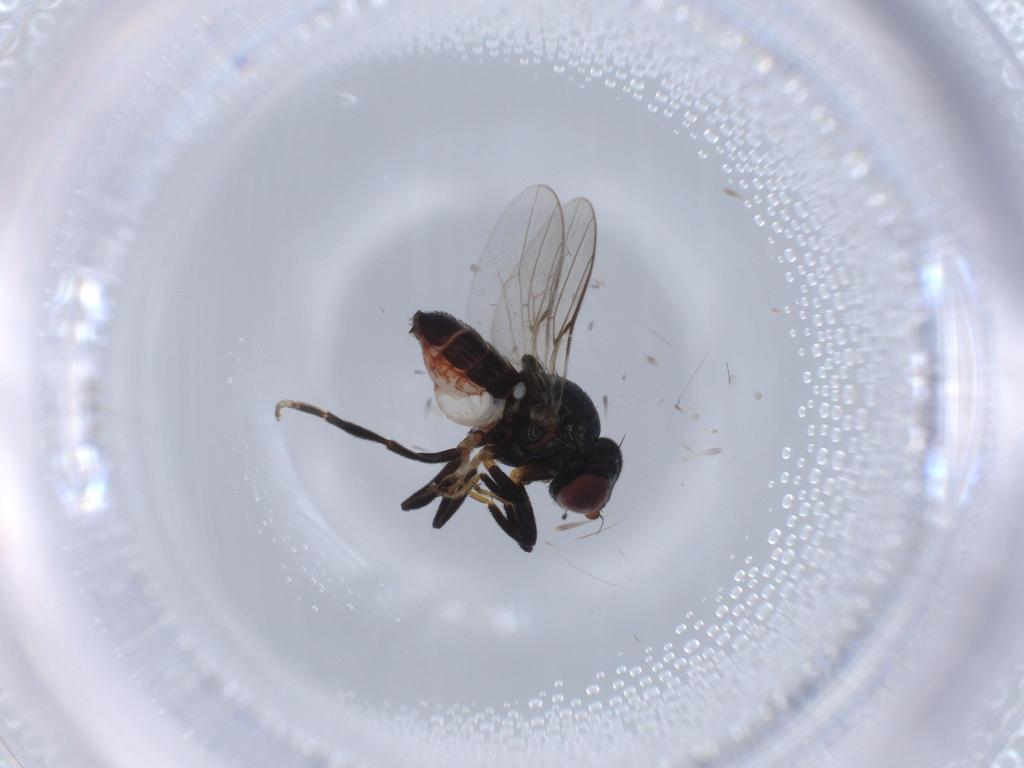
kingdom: Animalia
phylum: Arthropoda
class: Insecta
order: Diptera
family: Chloropidae
